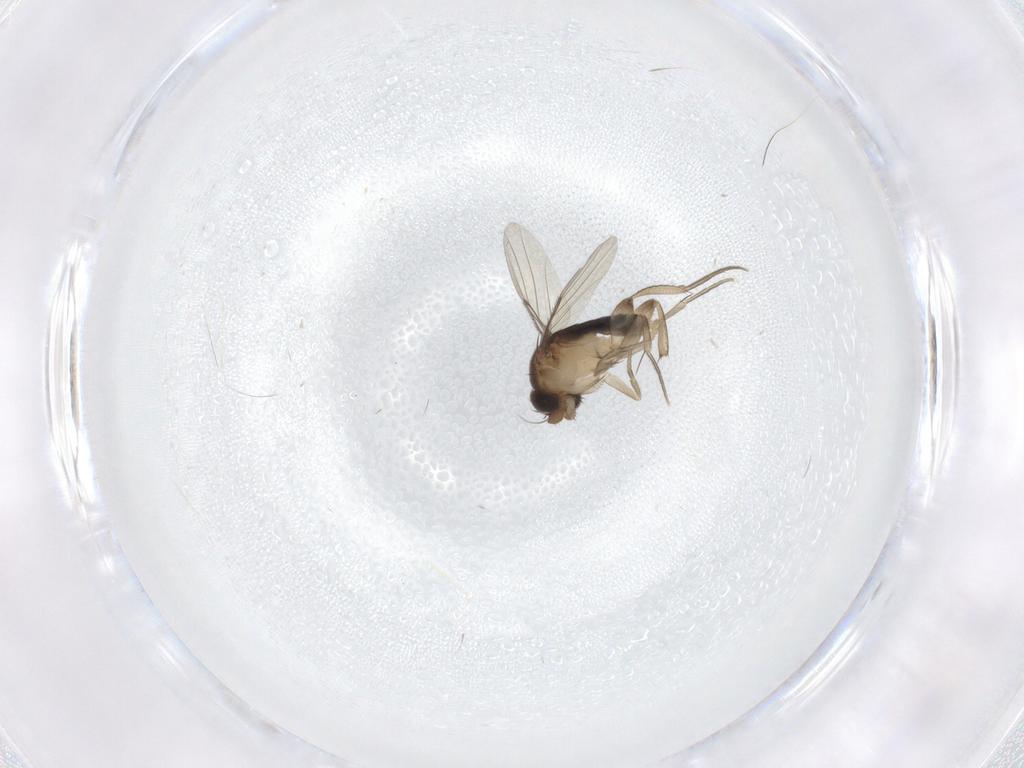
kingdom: Animalia
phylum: Arthropoda
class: Insecta
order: Diptera
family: Phoridae
